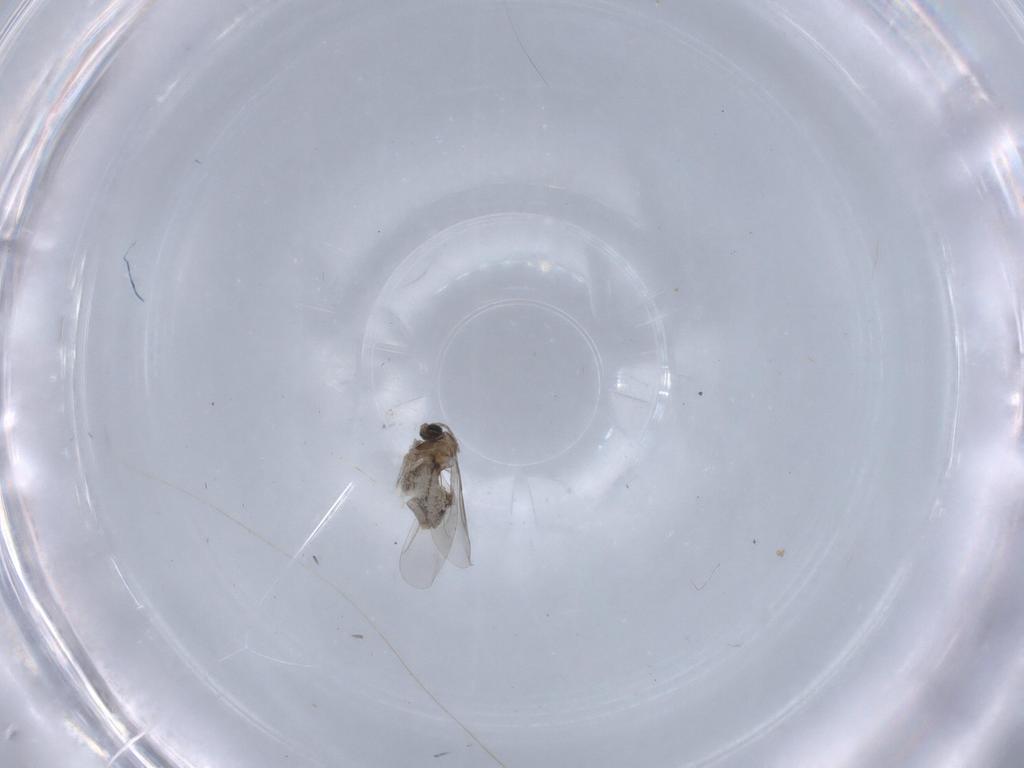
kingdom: Animalia
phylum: Arthropoda
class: Insecta
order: Diptera
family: Cecidomyiidae
